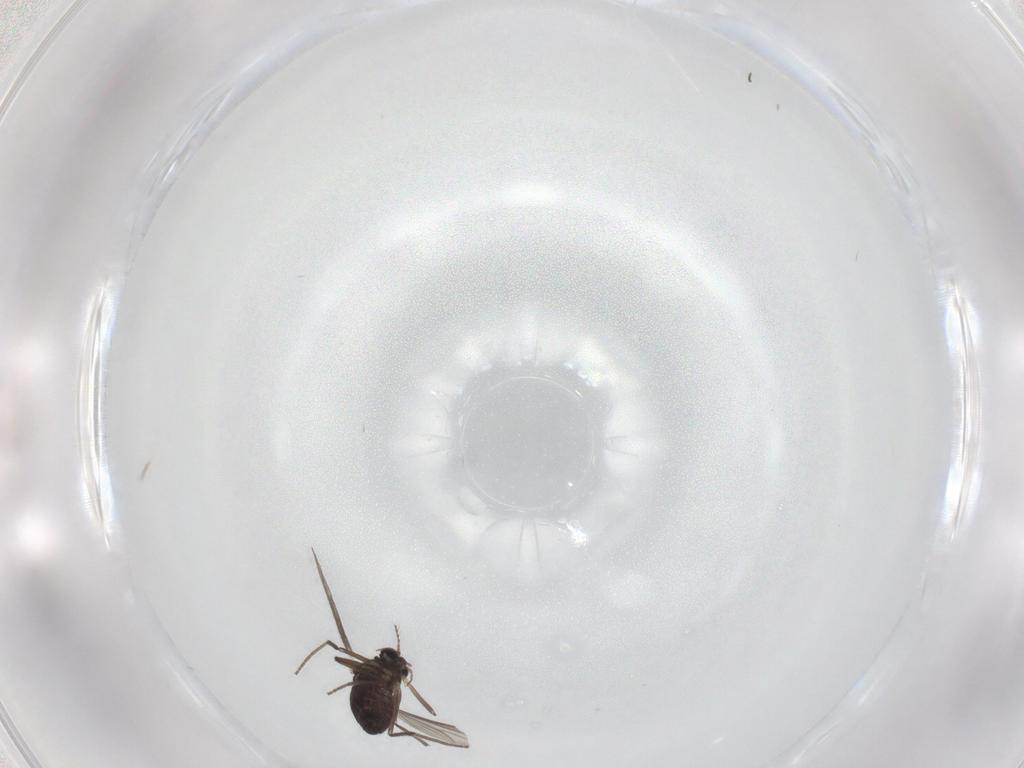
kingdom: Animalia
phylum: Arthropoda
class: Insecta
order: Diptera
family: Chironomidae
